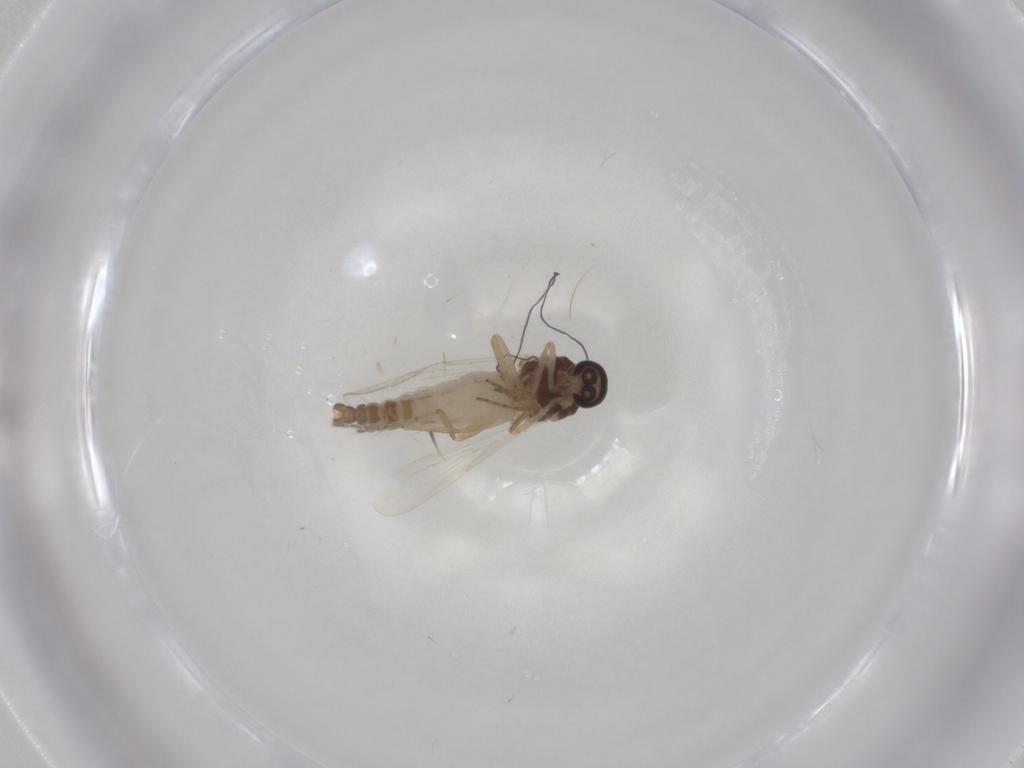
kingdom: Animalia
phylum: Arthropoda
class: Insecta
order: Diptera
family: Ceratopogonidae
